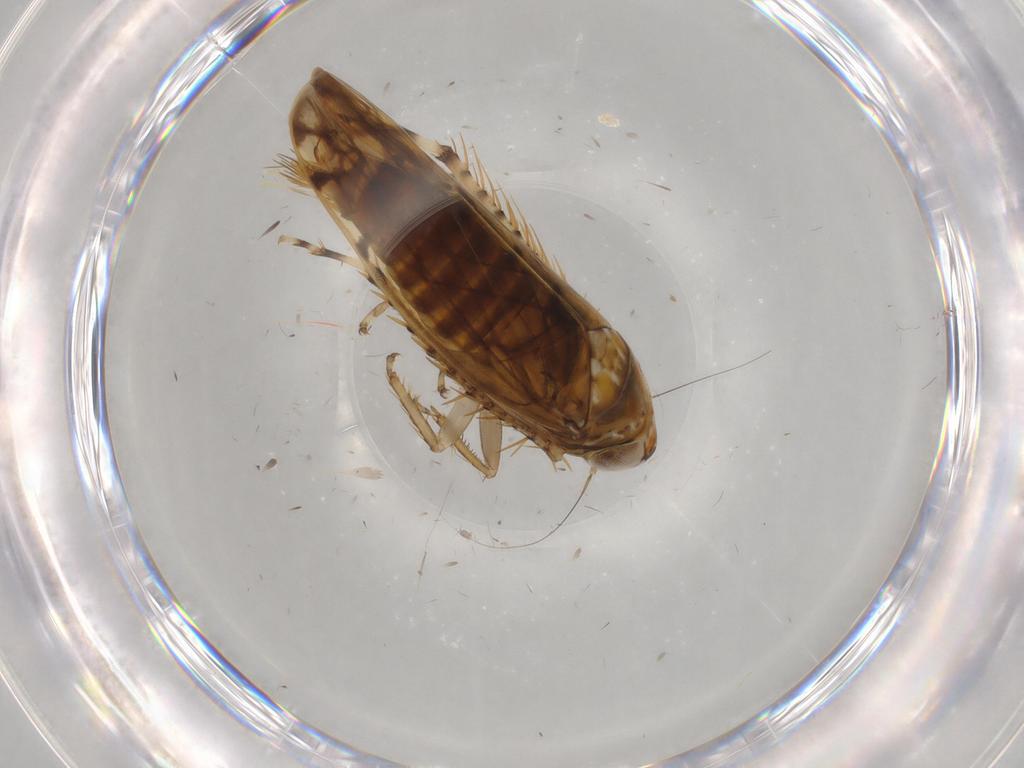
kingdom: Animalia
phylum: Arthropoda
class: Insecta
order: Hemiptera
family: Cicadellidae
